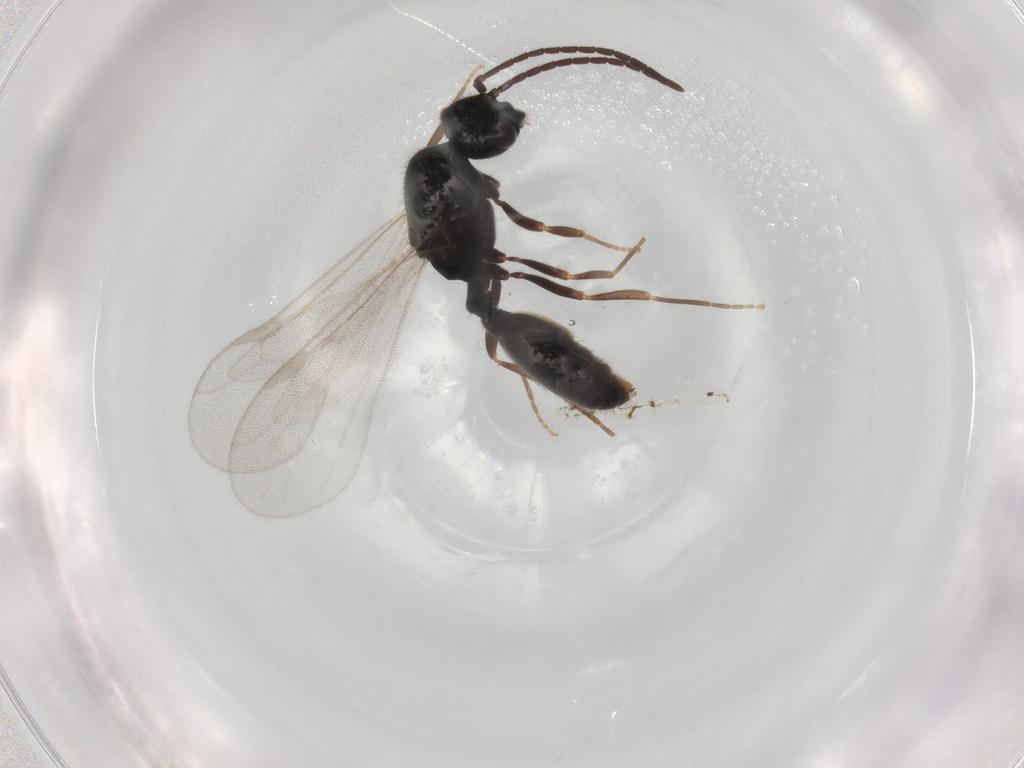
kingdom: Animalia
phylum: Arthropoda
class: Insecta
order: Hymenoptera
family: Formicidae
